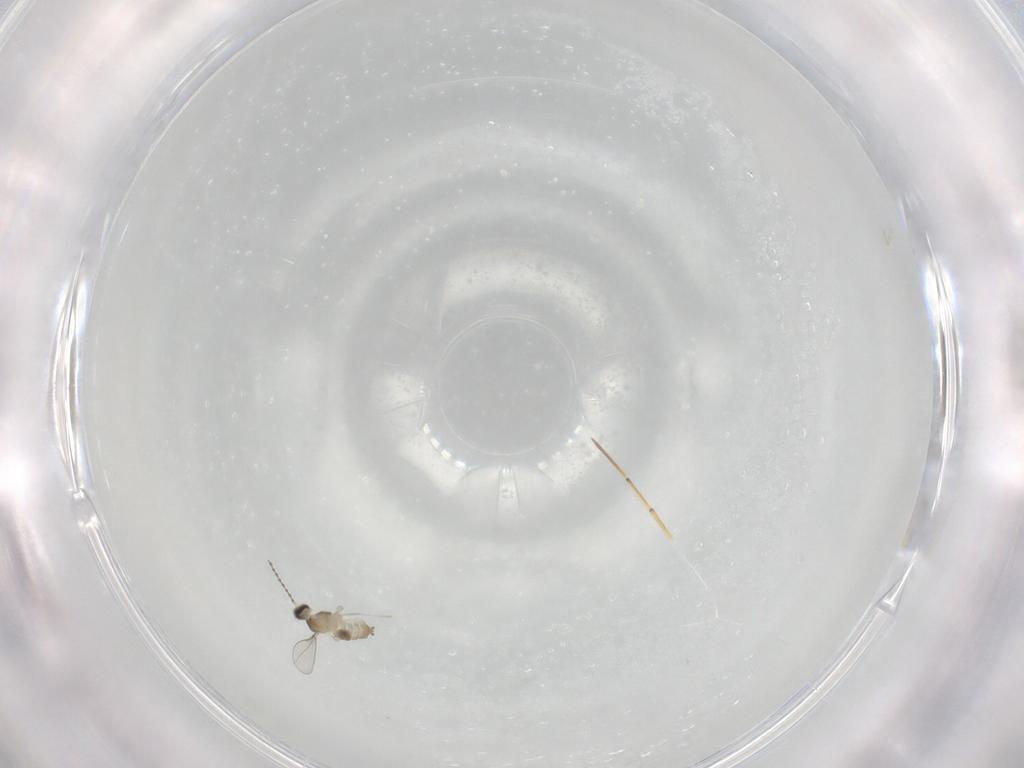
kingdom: Animalia
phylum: Arthropoda
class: Insecta
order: Diptera
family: Cecidomyiidae
